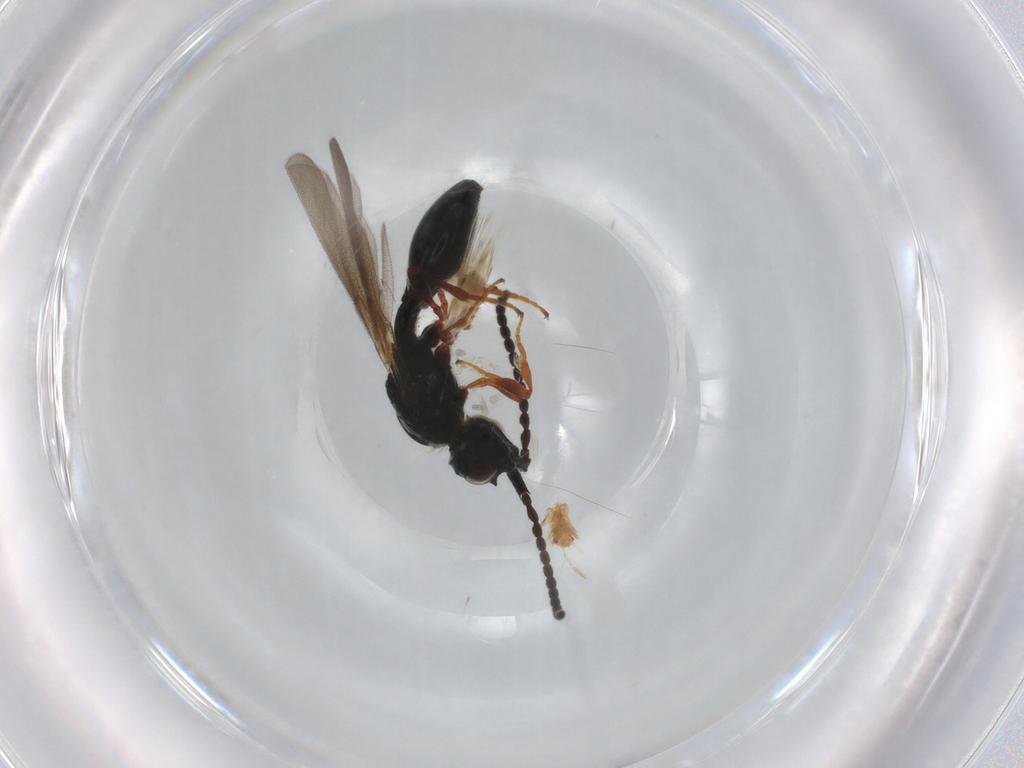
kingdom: Animalia
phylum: Arthropoda
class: Insecta
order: Hymenoptera
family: Diapriidae
